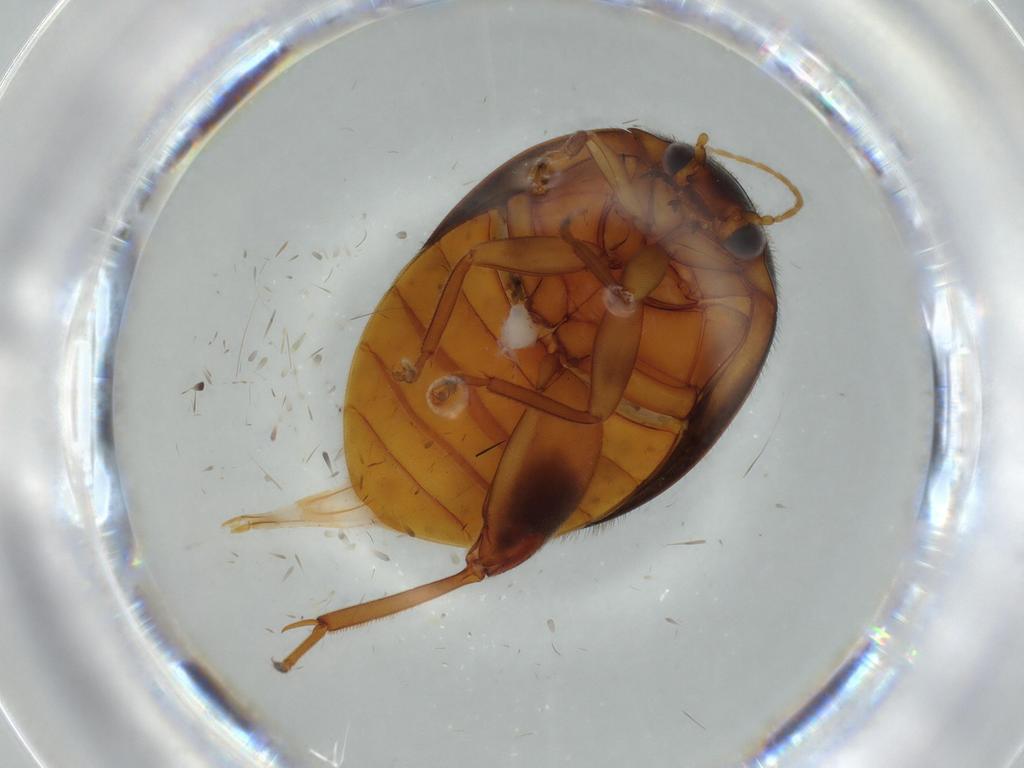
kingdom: Animalia
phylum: Arthropoda
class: Insecta
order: Coleoptera
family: Scirtidae
